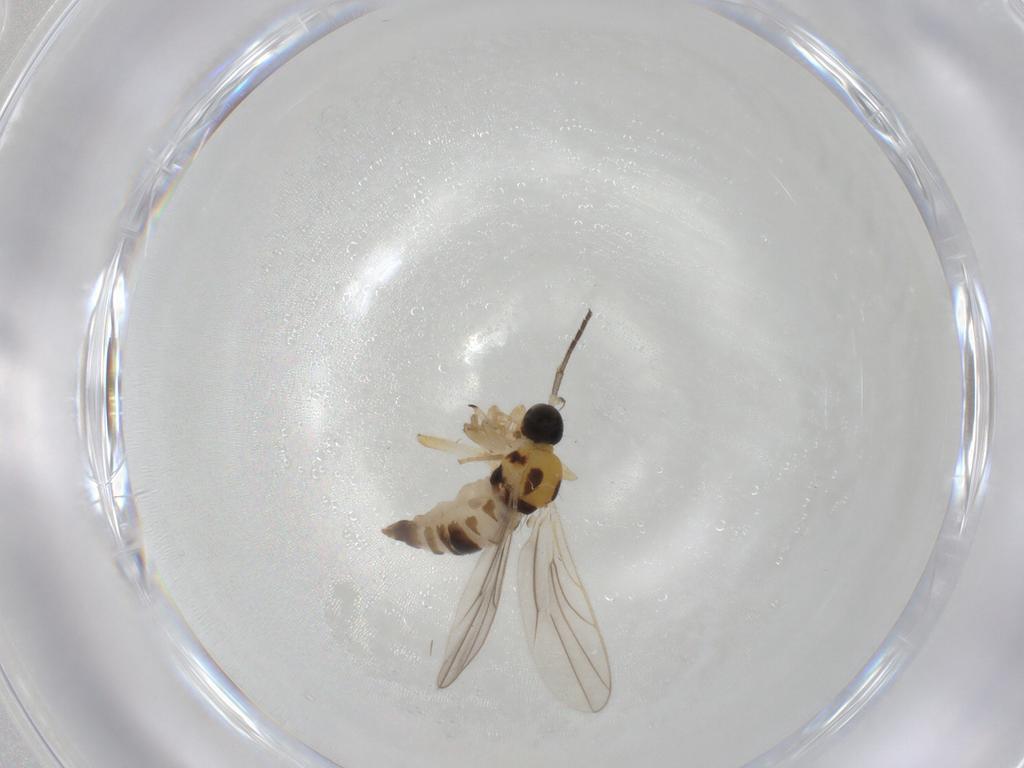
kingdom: Animalia
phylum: Arthropoda
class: Insecta
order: Diptera
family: Hybotidae
